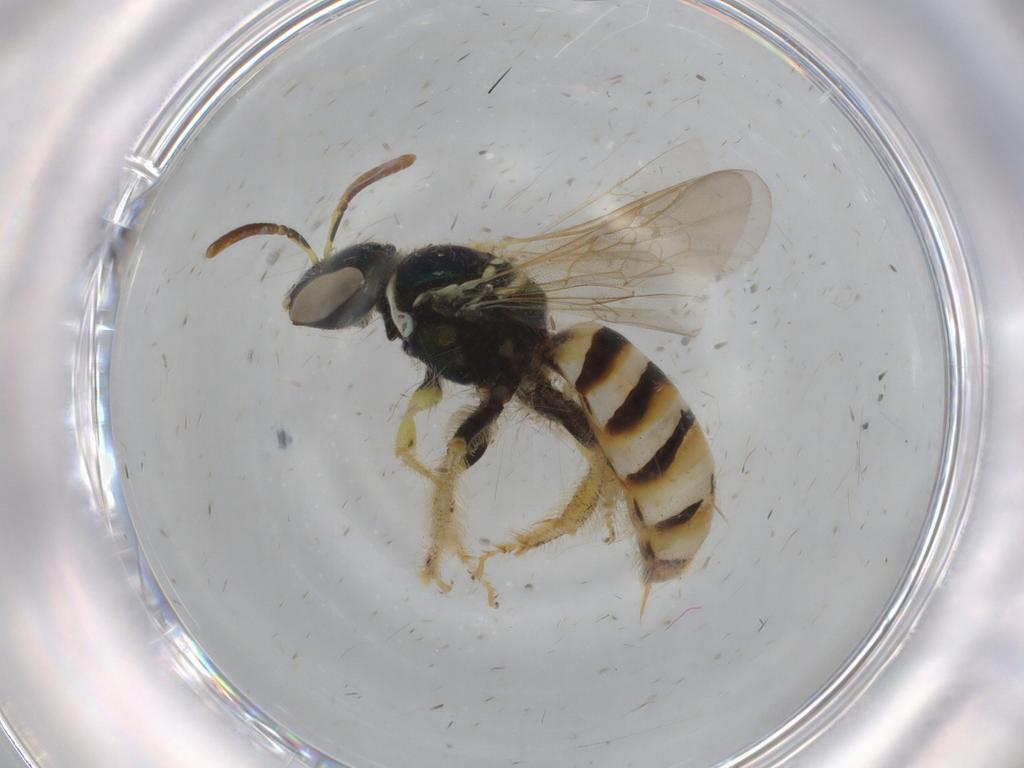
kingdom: Animalia
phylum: Arthropoda
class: Insecta
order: Hymenoptera
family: Halictidae
